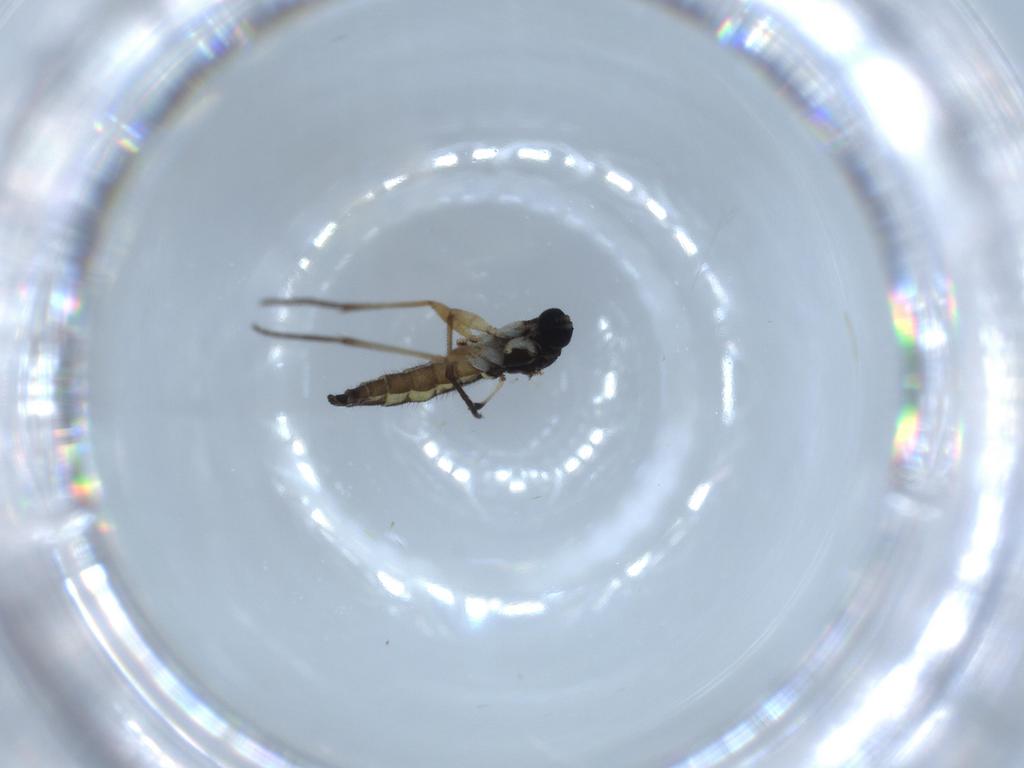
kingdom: Animalia
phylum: Arthropoda
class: Insecta
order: Diptera
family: Sciaridae
